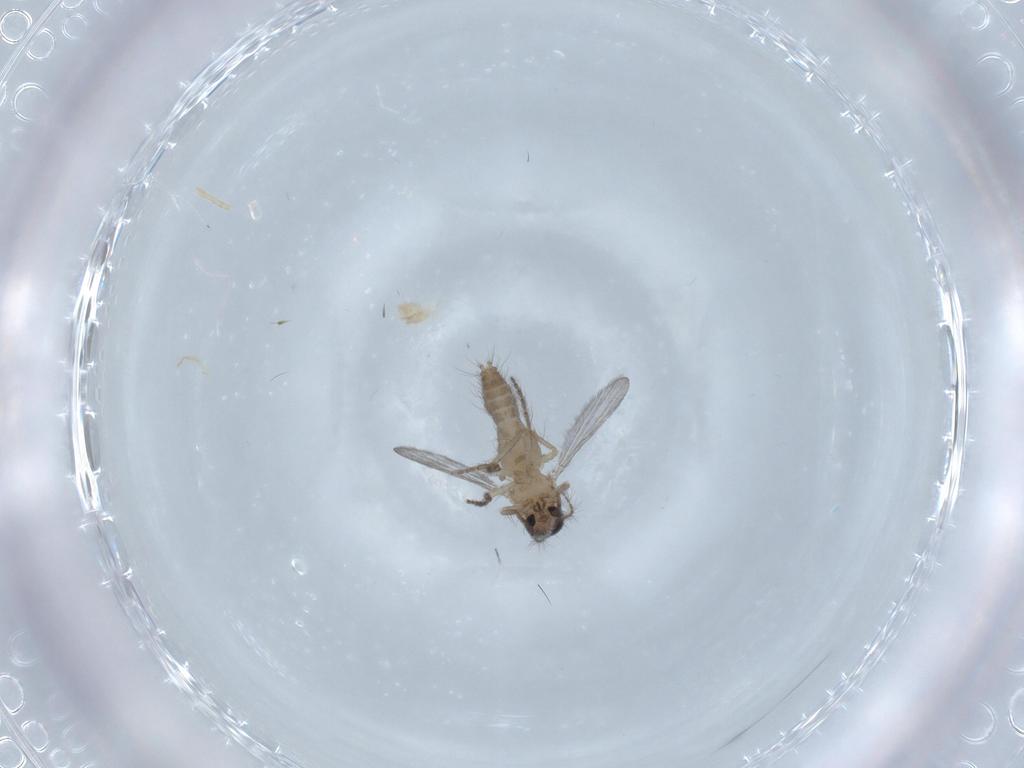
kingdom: Animalia
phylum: Arthropoda
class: Insecta
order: Diptera
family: Ceratopogonidae
